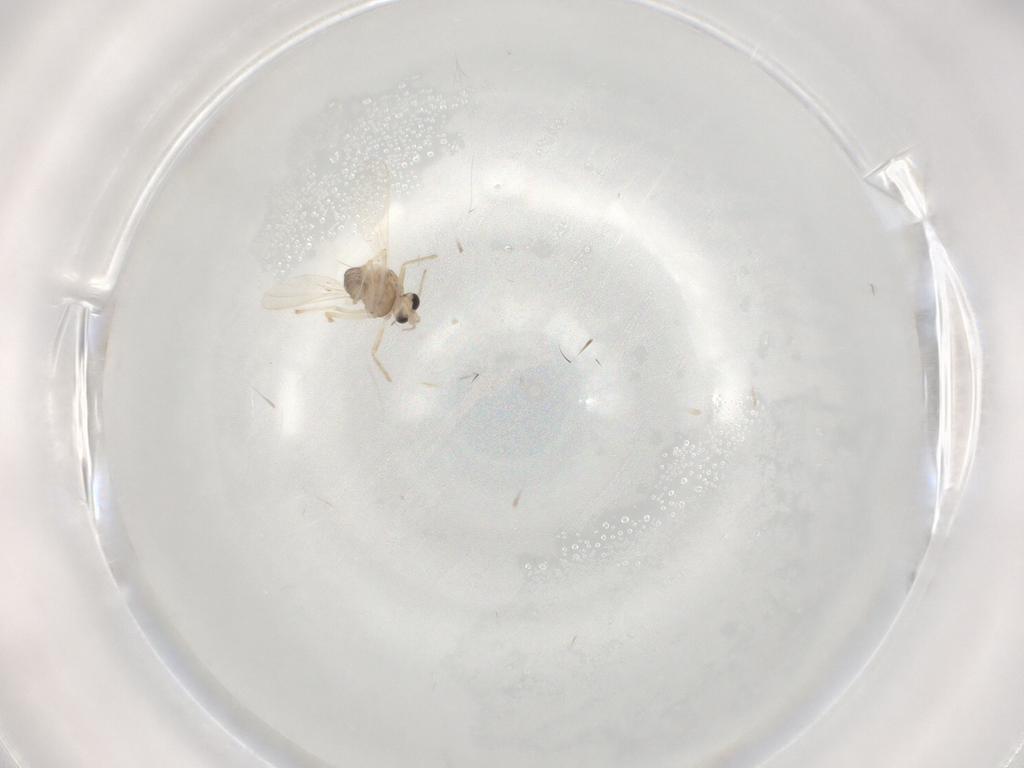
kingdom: Animalia
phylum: Arthropoda
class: Insecta
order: Diptera
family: Chironomidae
